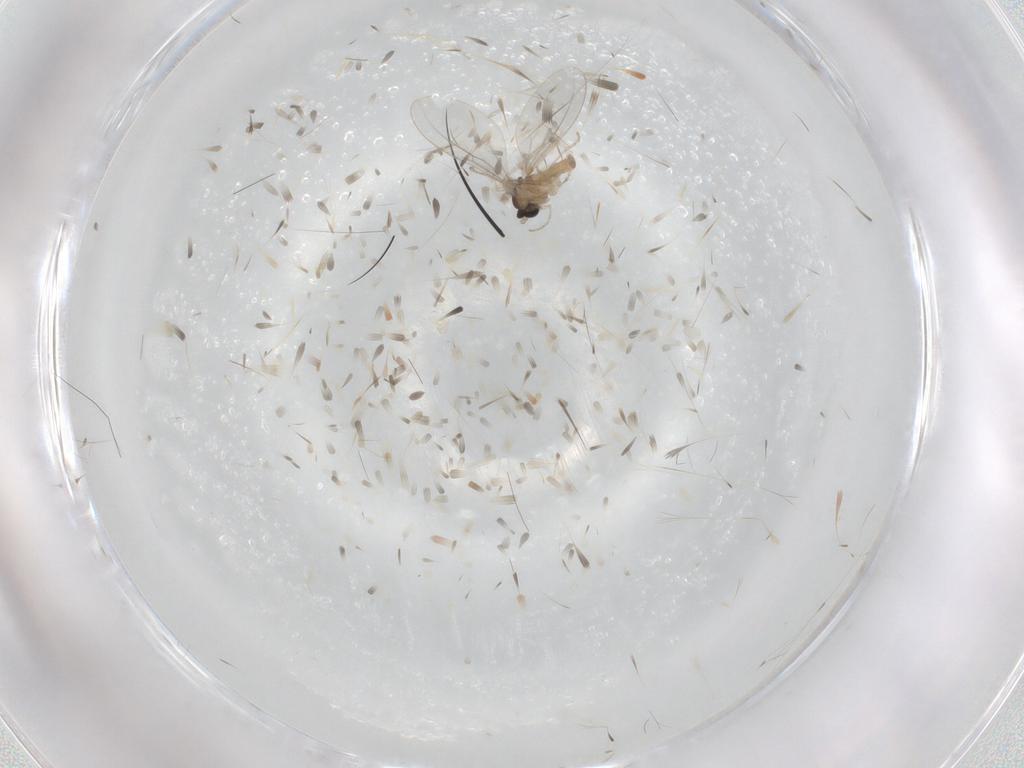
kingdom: Animalia
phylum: Arthropoda
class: Insecta
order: Diptera
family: Cecidomyiidae
